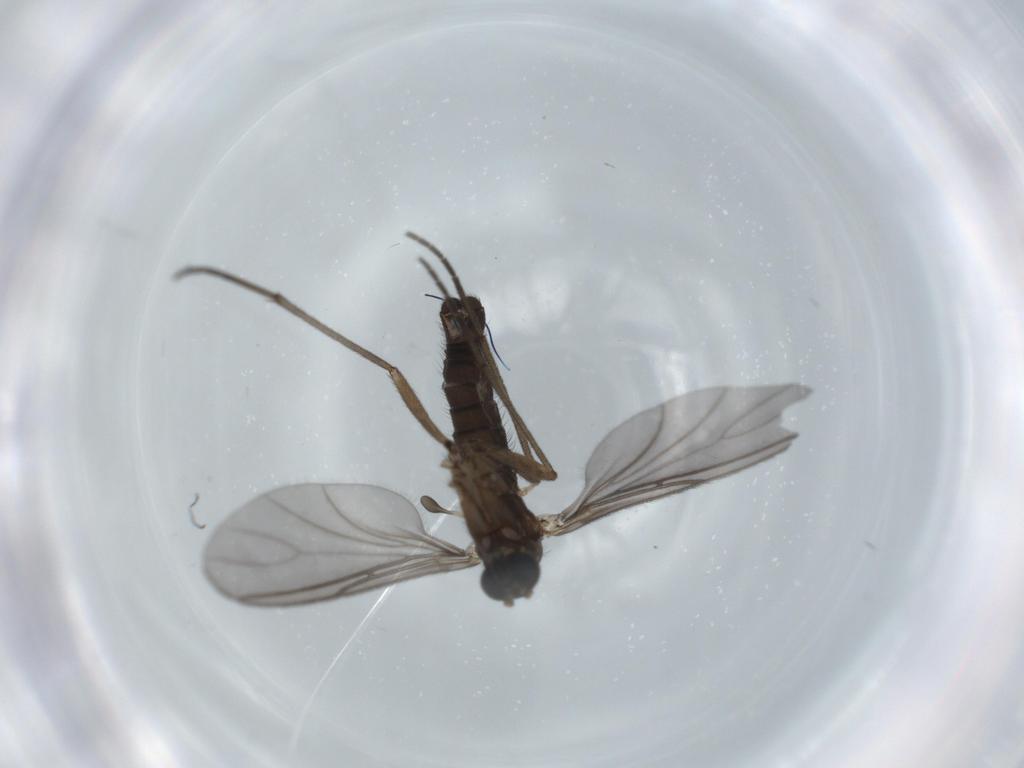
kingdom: Animalia
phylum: Arthropoda
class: Insecta
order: Diptera
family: Sciaridae
